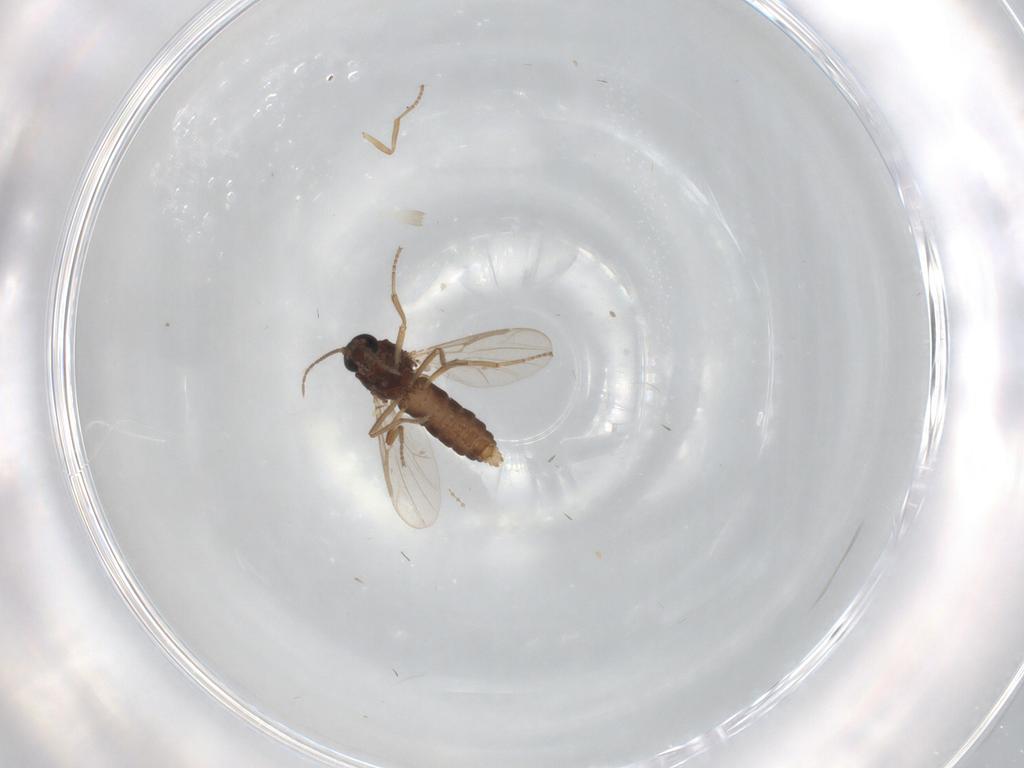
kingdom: Animalia
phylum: Arthropoda
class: Insecta
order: Diptera
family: Ceratopogonidae
